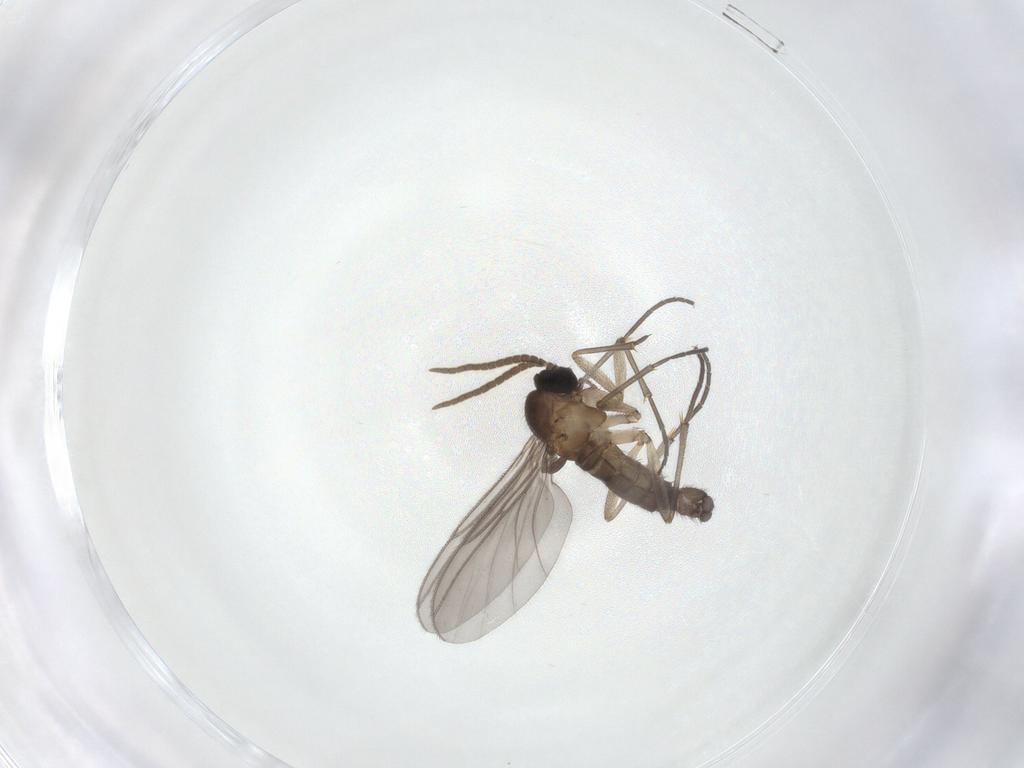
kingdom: Animalia
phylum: Arthropoda
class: Insecta
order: Diptera
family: Chironomidae
